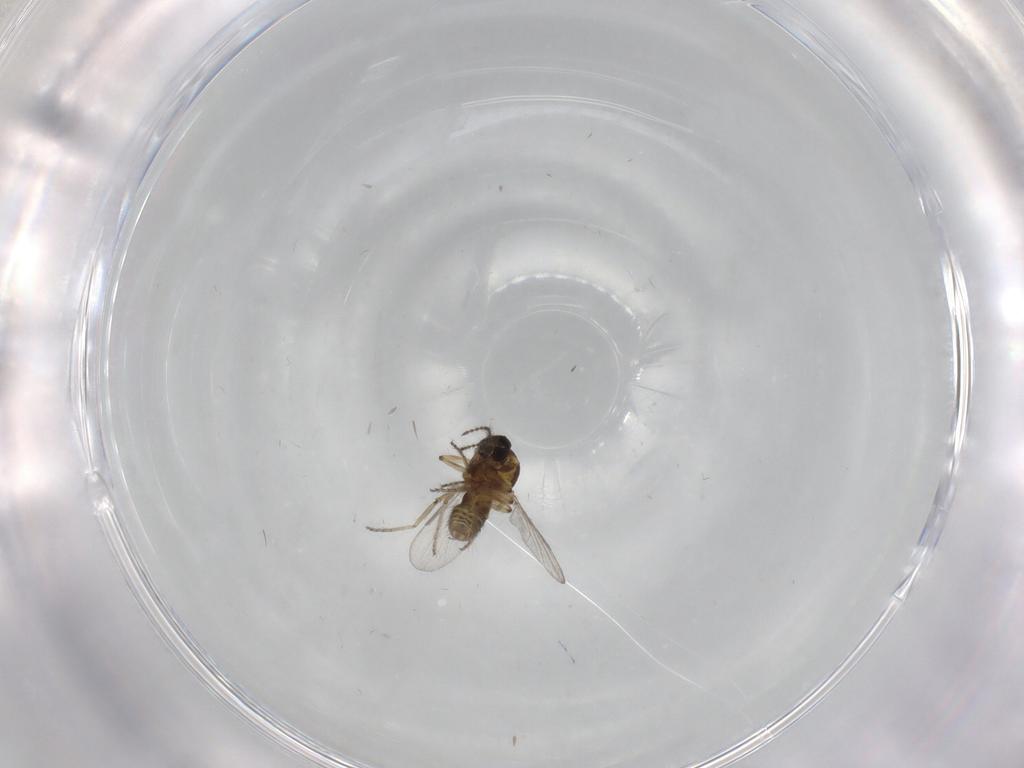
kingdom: Animalia
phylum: Arthropoda
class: Insecta
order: Diptera
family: Ceratopogonidae
